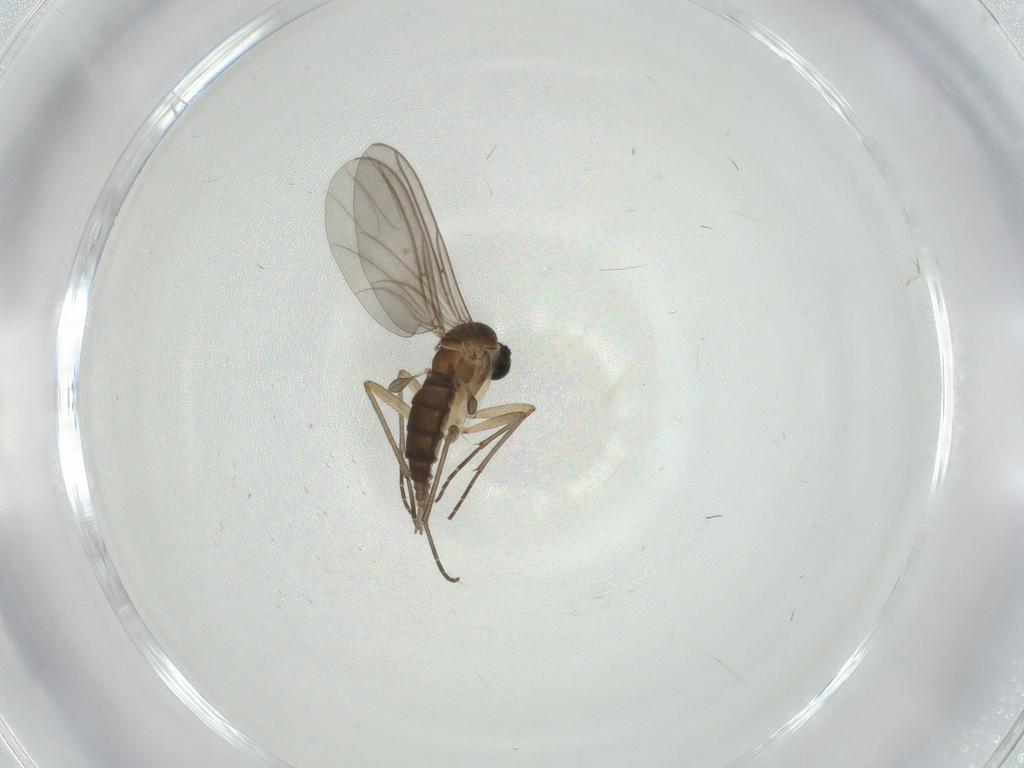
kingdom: Animalia
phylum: Arthropoda
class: Insecta
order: Diptera
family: Sciaridae
